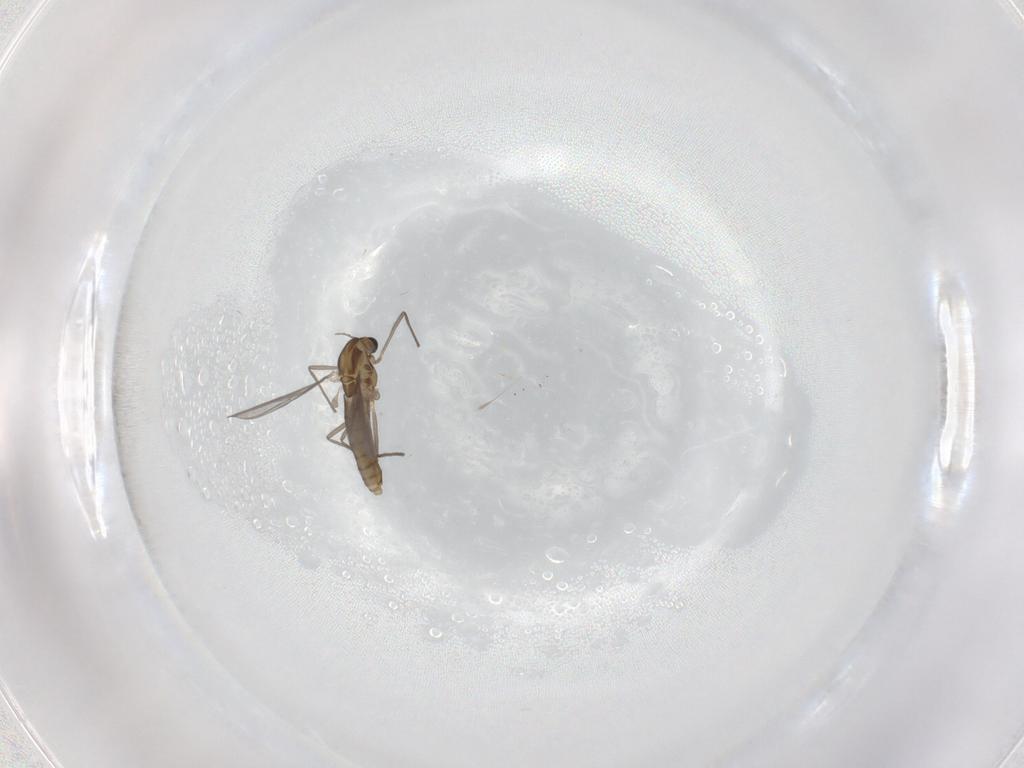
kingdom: Animalia
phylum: Arthropoda
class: Insecta
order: Diptera
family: Chironomidae
